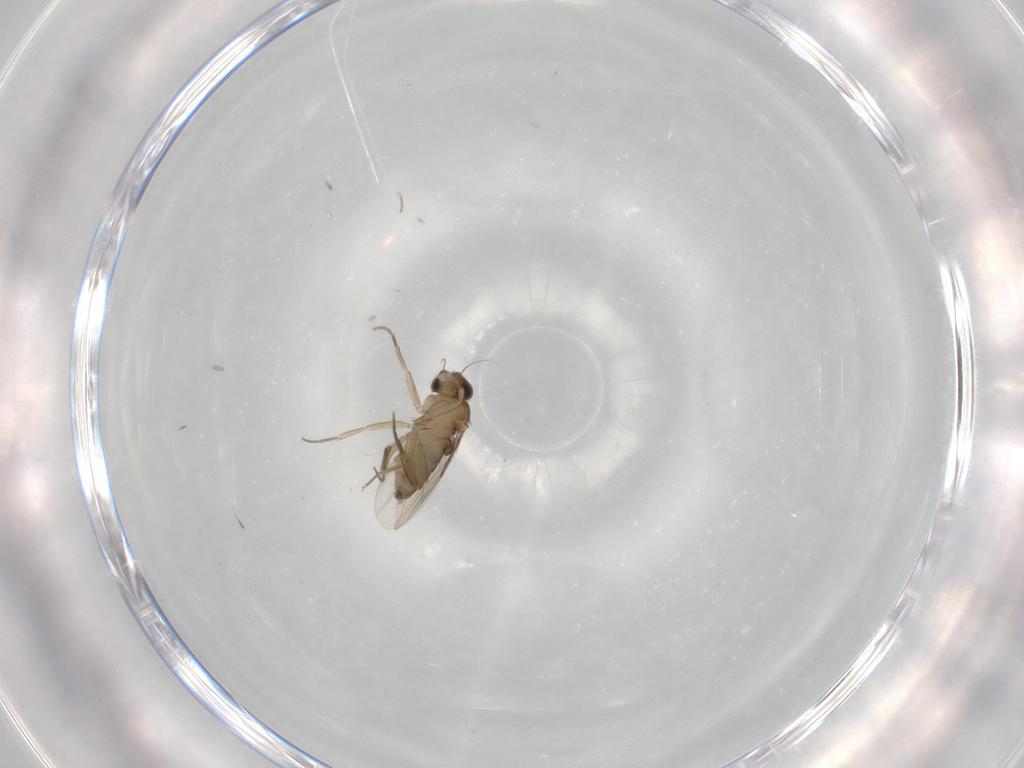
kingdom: Animalia
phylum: Arthropoda
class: Insecta
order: Diptera
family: Phoridae
